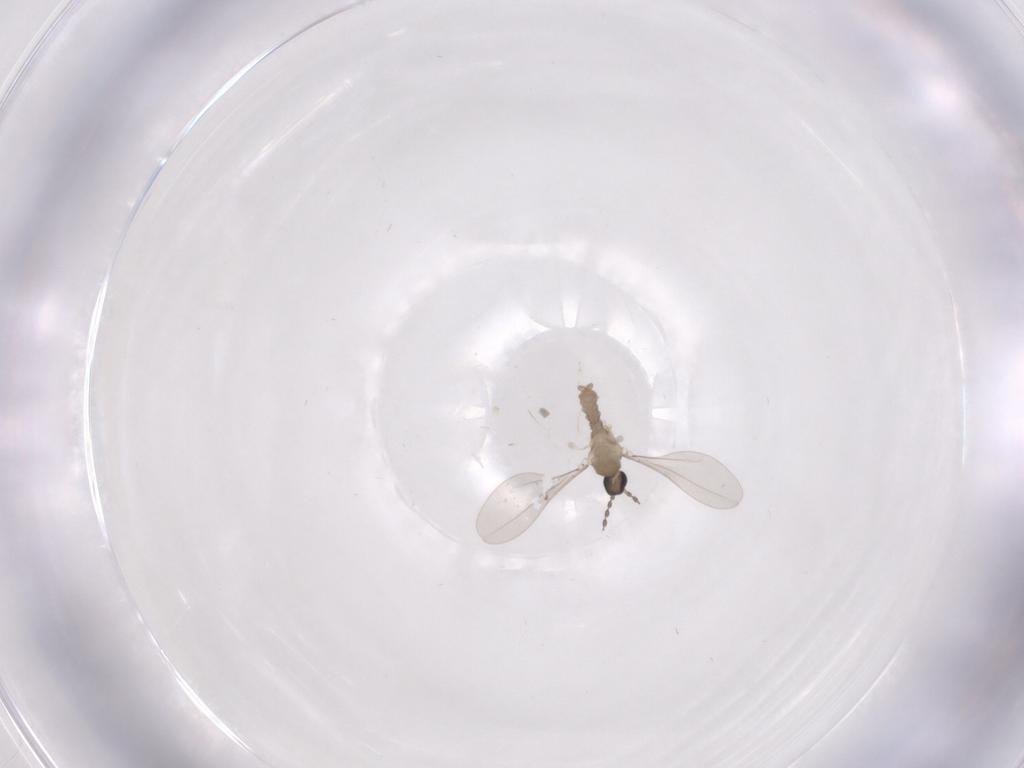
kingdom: Animalia
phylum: Arthropoda
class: Insecta
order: Diptera
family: Cecidomyiidae
